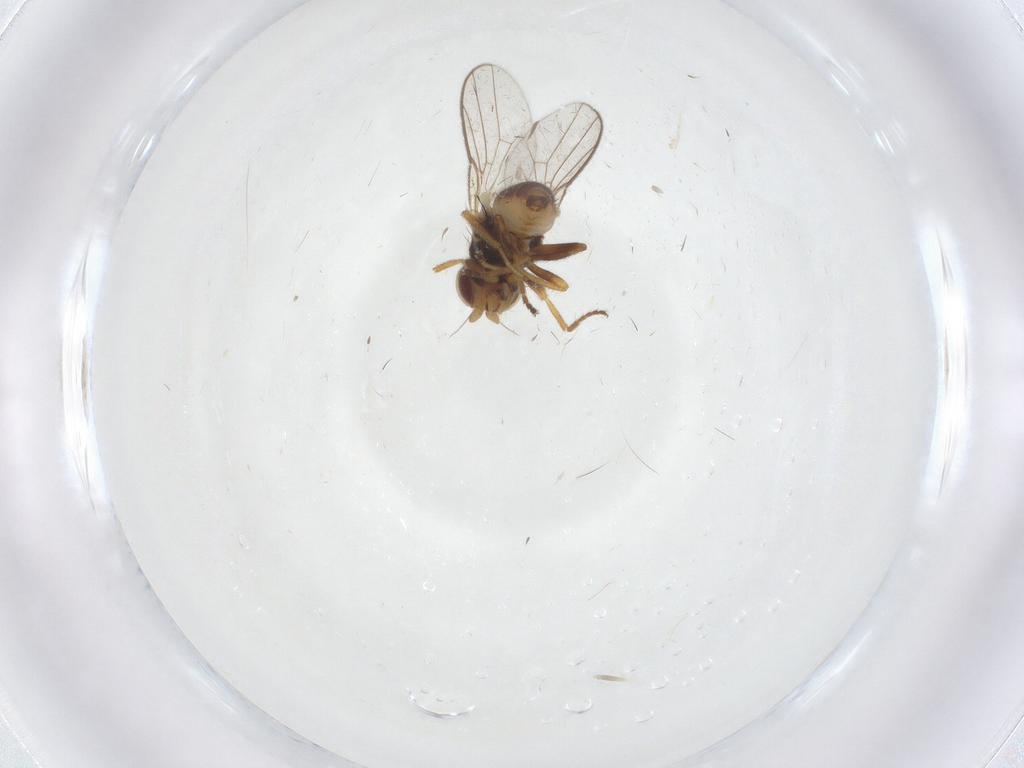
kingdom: Animalia
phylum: Arthropoda
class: Insecta
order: Diptera
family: Chloropidae
